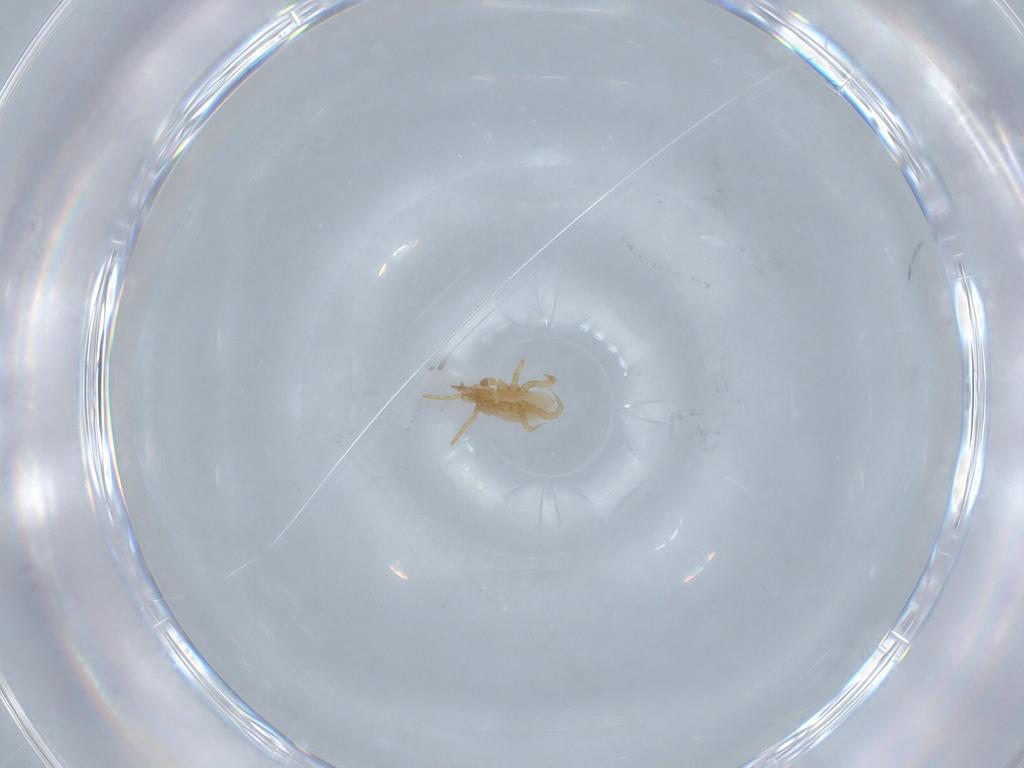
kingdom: Animalia
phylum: Arthropoda
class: Arachnida
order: Mesostigmata
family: Parasitidae
